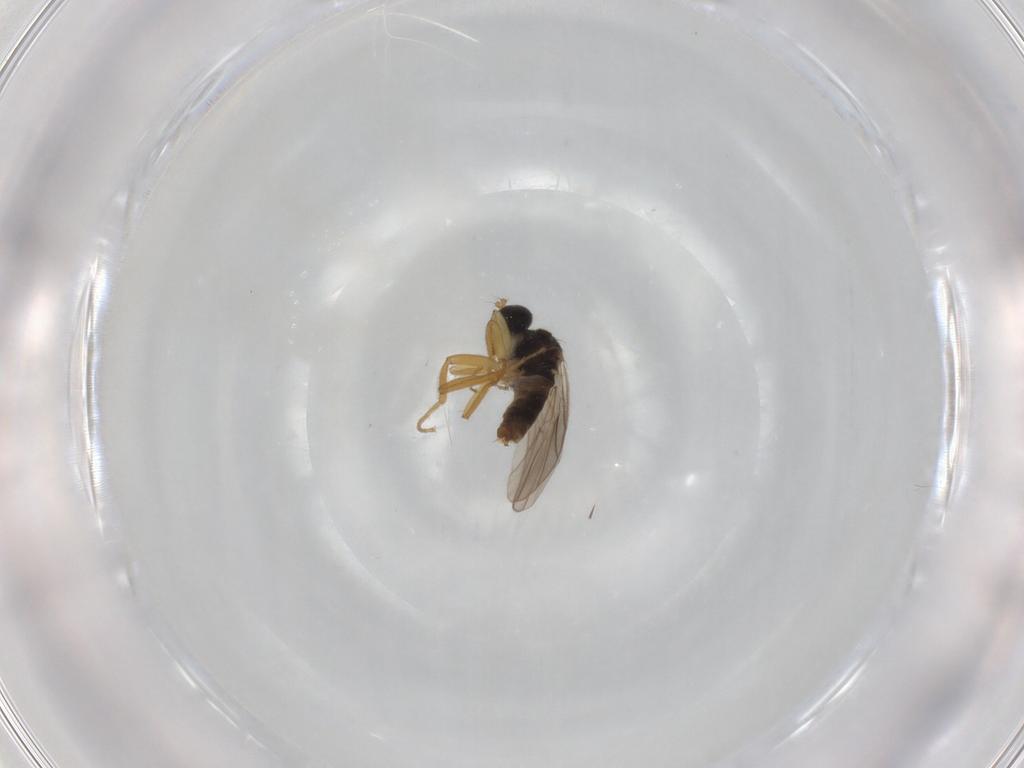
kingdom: Animalia
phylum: Arthropoda
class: Insecta
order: Diptera
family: Hybotidae
